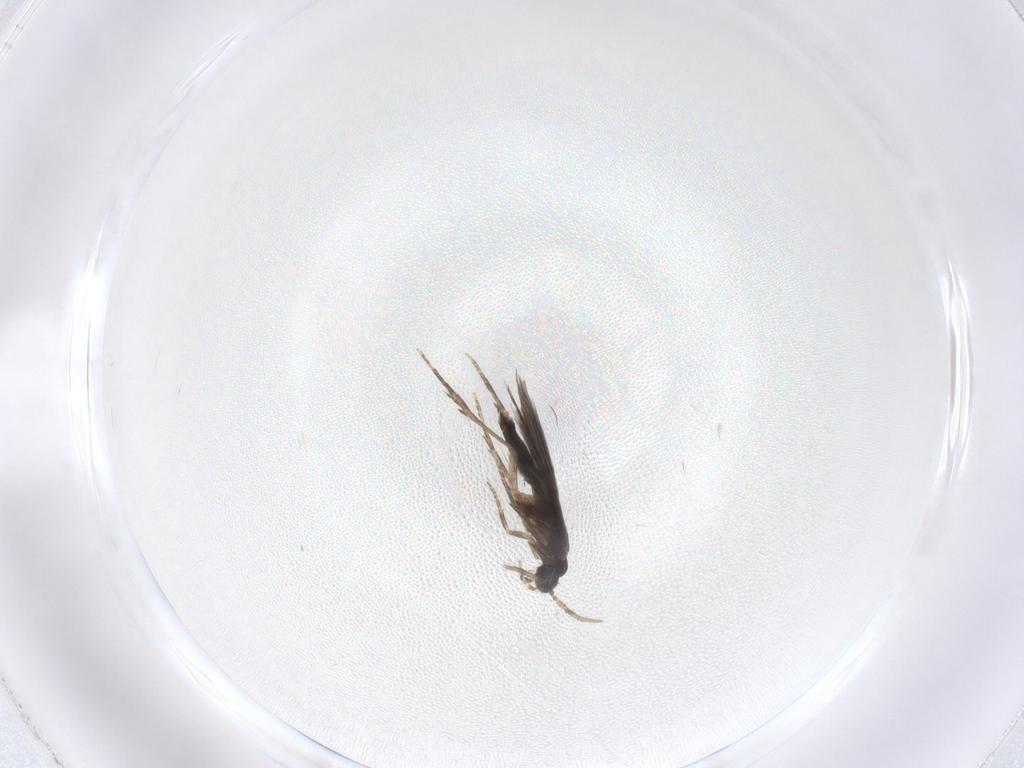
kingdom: Animalia
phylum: Arthropoda
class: Insecta
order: Trichoptera
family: Hydroptilidae
